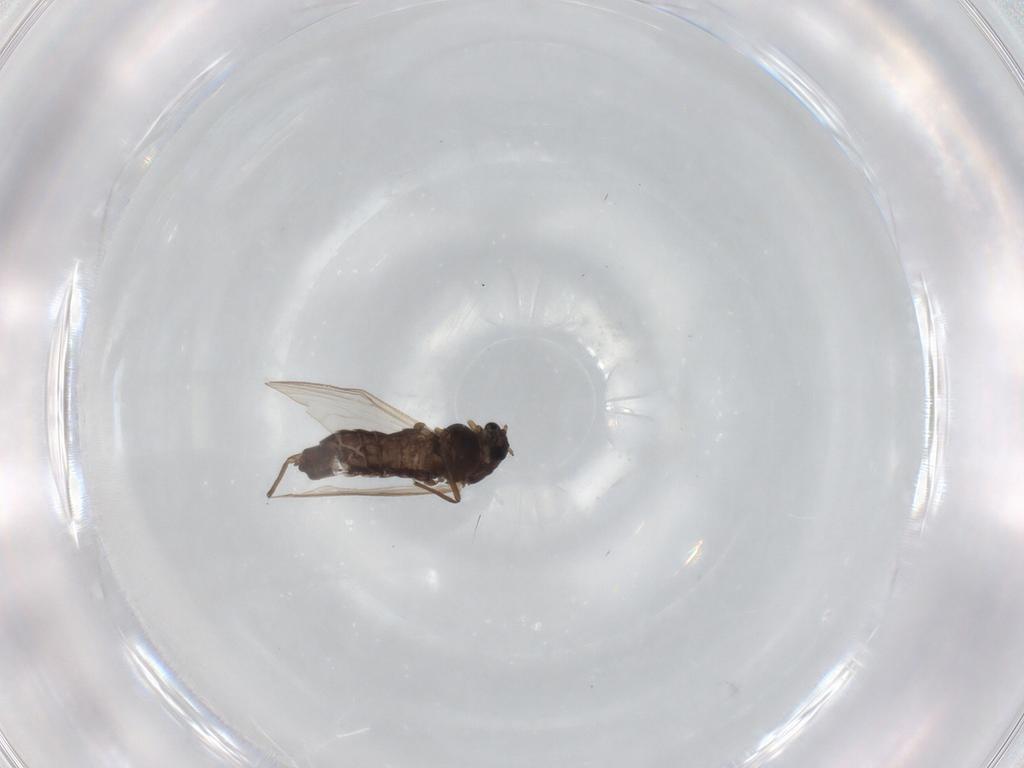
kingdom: Animalia
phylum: Arthropoda
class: Insecta
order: Diptera
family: Chironomidae
